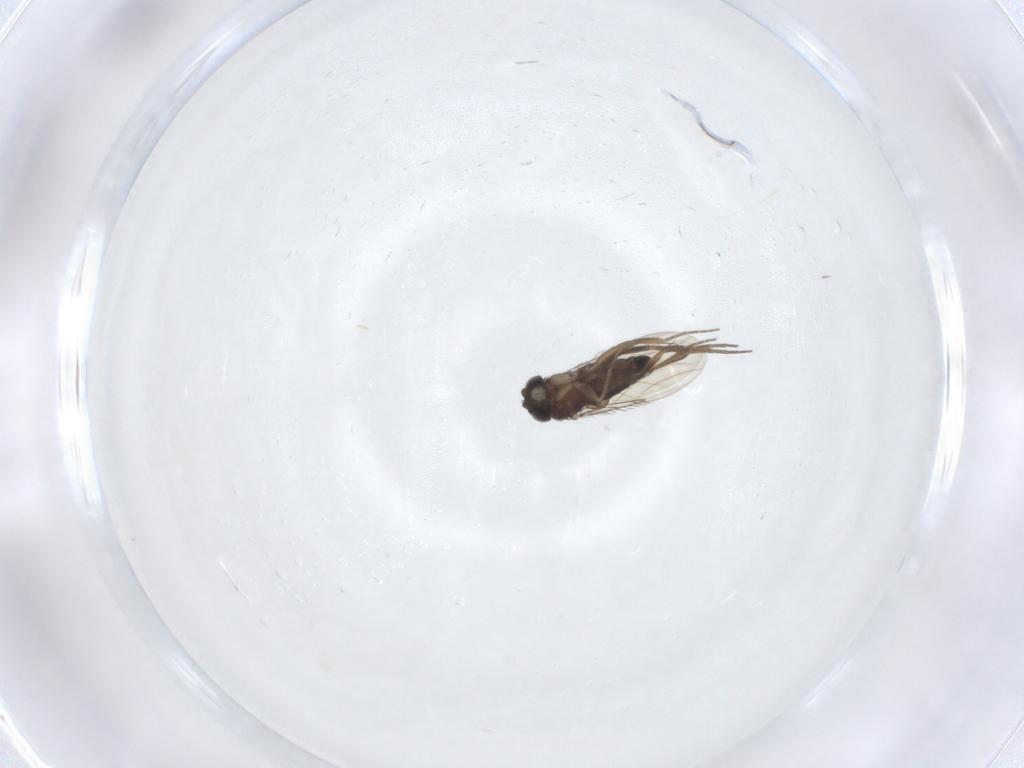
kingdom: Animalia
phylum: Arthropoda
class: Insecta
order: Diptera
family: Phoridae
